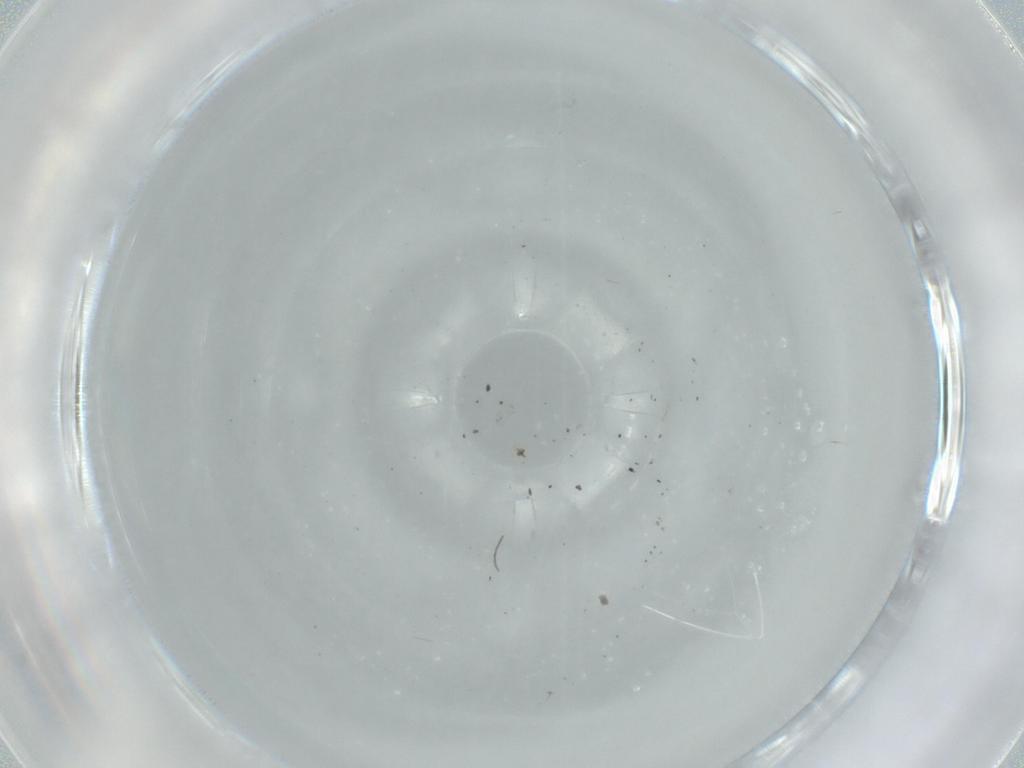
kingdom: Animalia
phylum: Arthropoda
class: Insecta
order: Diptera
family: Chironomidae
